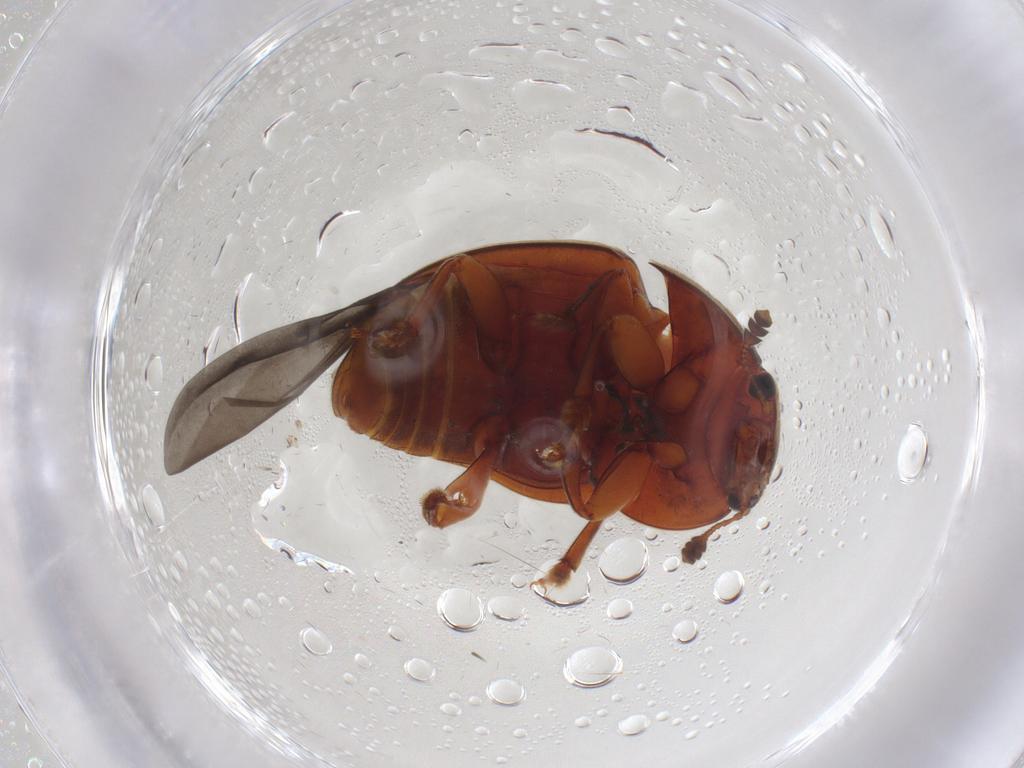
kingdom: Animalia
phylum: Arthropoda
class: Insecta
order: Coleoptera
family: Nitidulidae
